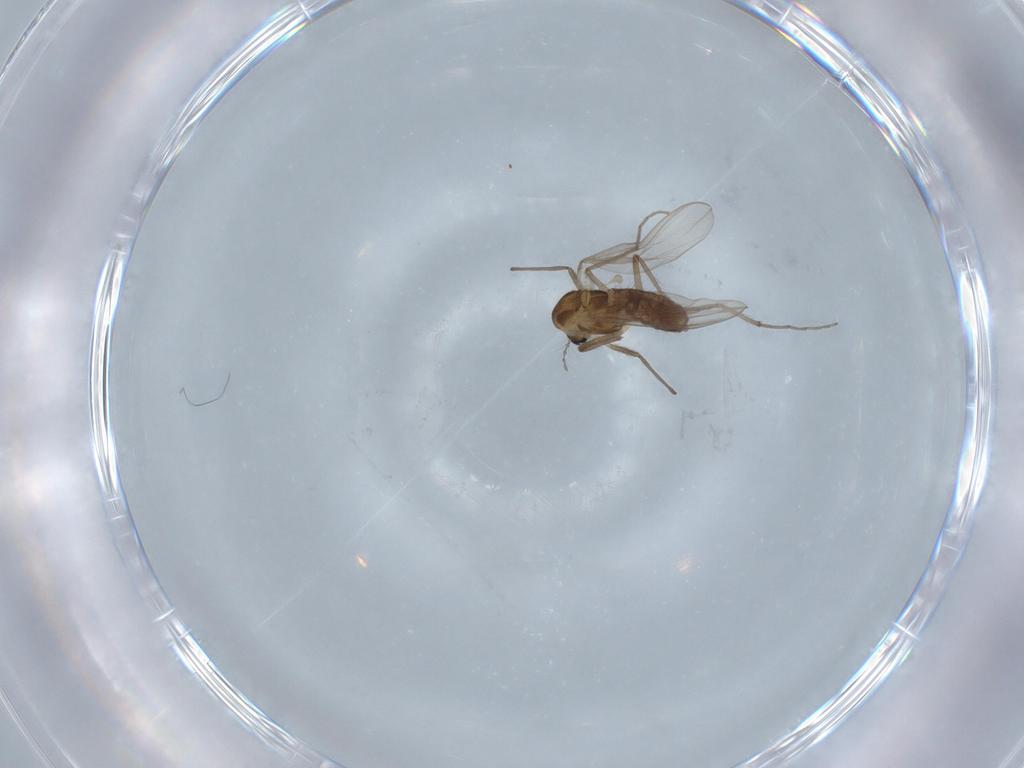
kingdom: Animalia
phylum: Arthropoda
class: Insecta
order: Diptera
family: Chironomidae
